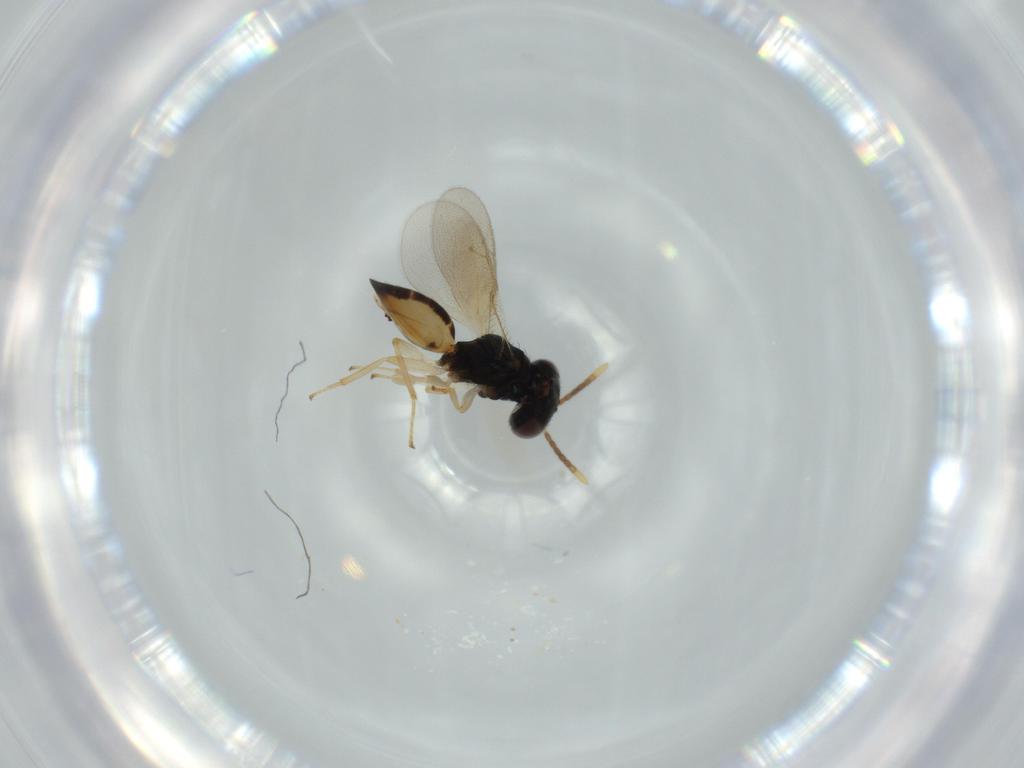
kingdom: Animalia
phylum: Arthropoda
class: Insecta
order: Hymenoptera
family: Pteromalidae
